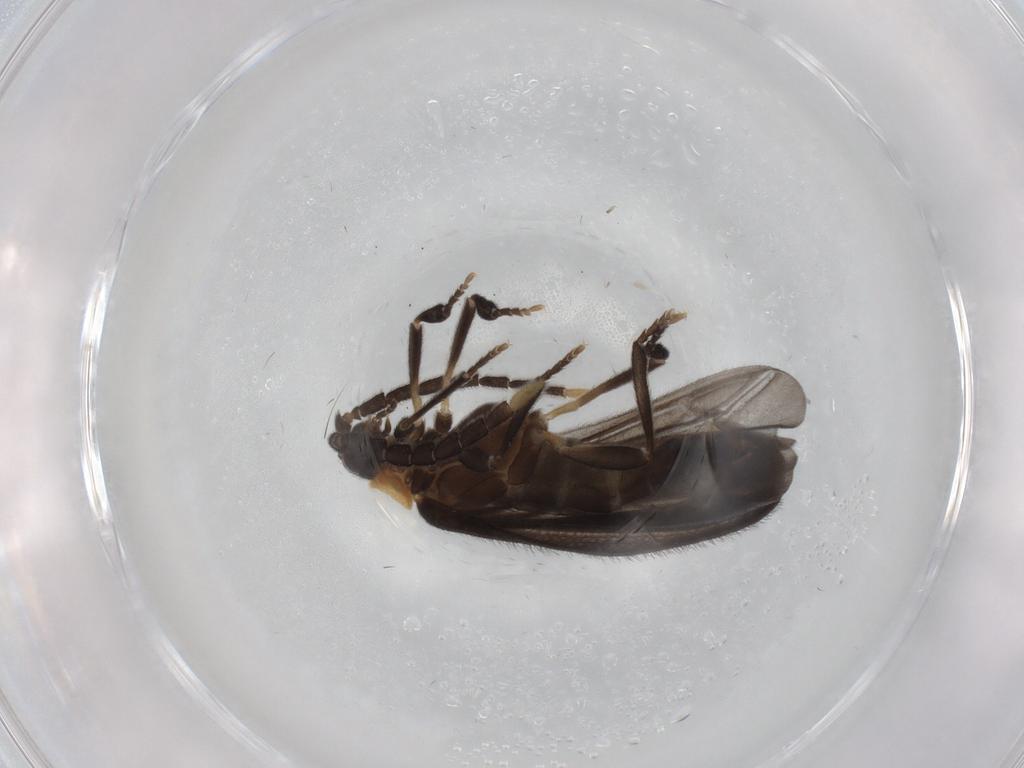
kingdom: Animalia
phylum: Arthropoda
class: Insecta
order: Coleoptera
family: Lycidae
